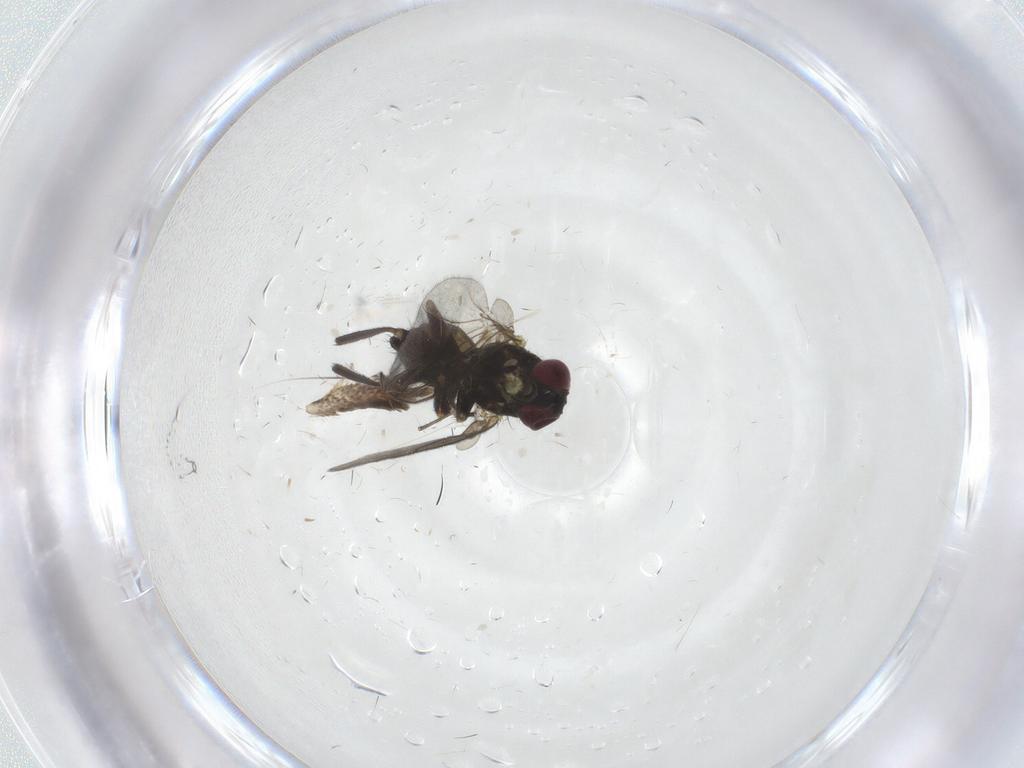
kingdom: Animalia
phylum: Arthropoda
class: Insecta
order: Diptera
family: Agromyzidae
